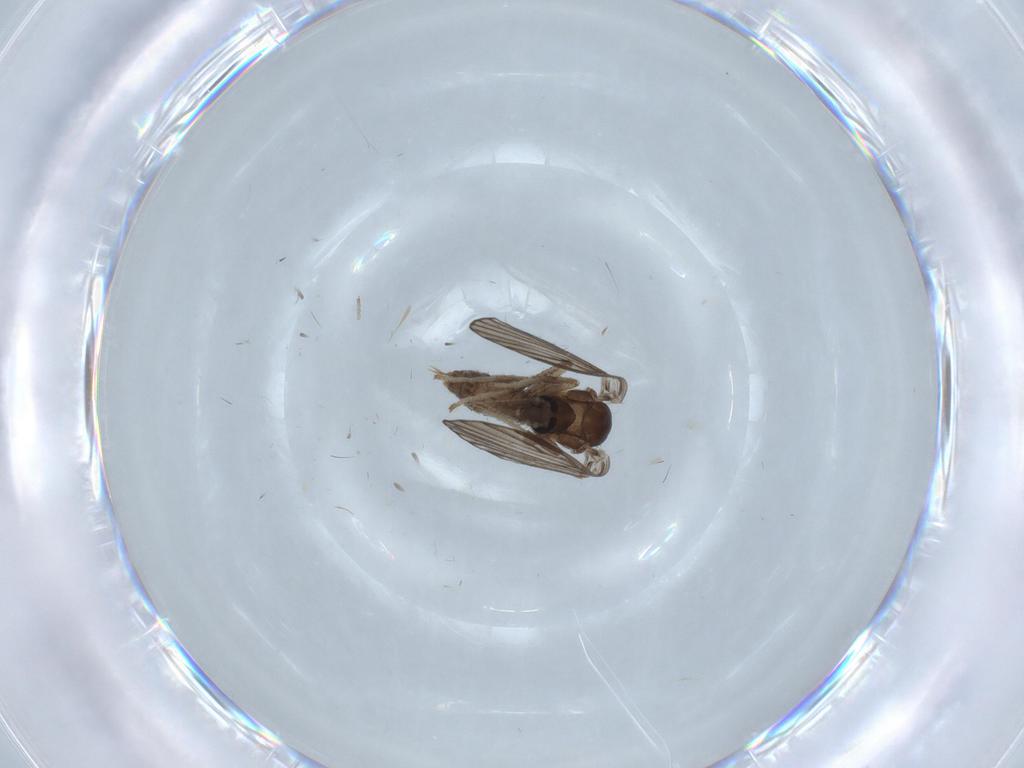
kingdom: Animalia
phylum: Arthropoda
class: Insecta
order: Diptera
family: Psychodidae
